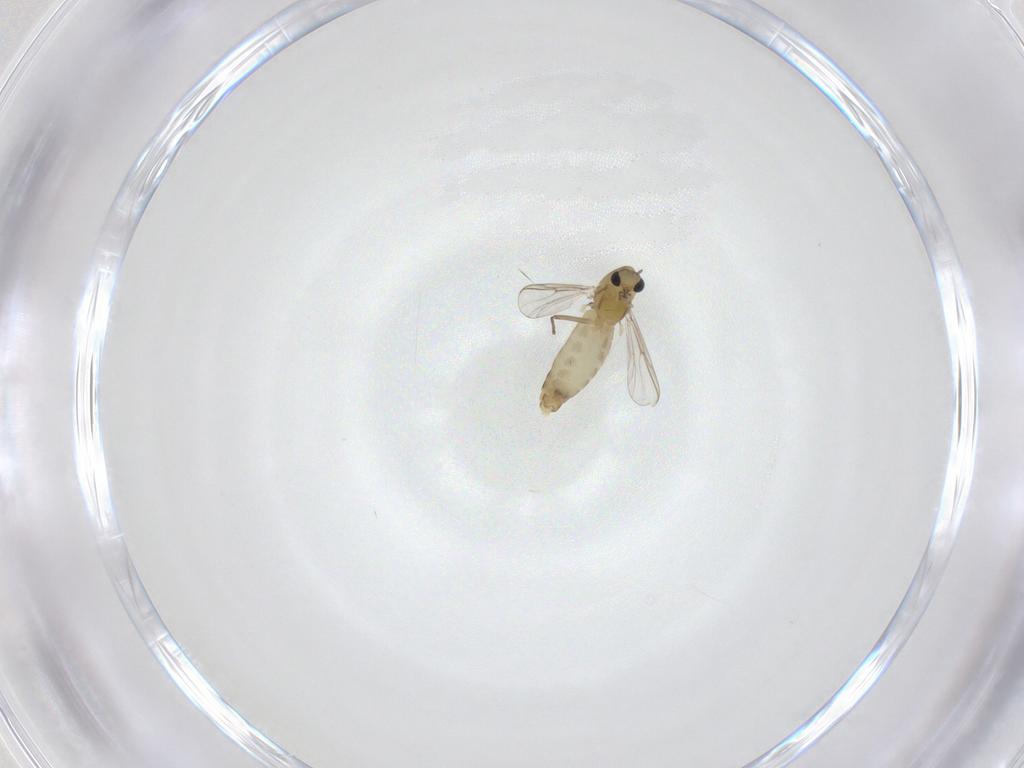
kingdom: Animalia
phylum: Arthropoda
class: Insecta
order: Diptera
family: Chironomidae
